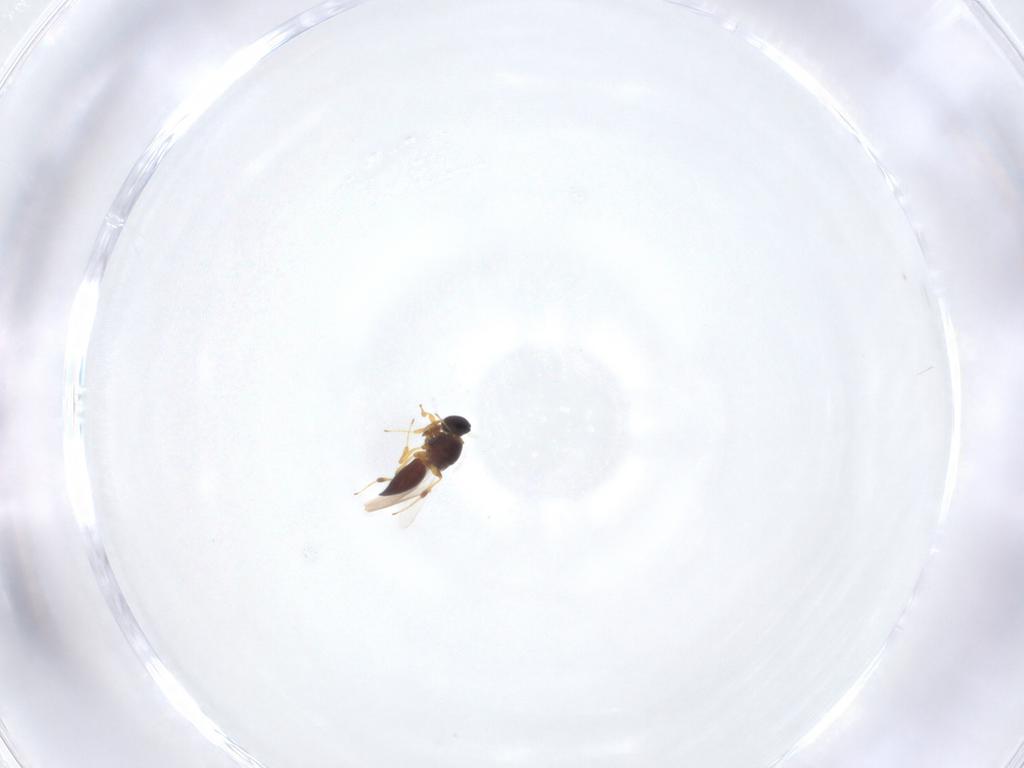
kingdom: Animalia
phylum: Arthropoda
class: Insecta
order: Hymenoptera
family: Platygastridae
